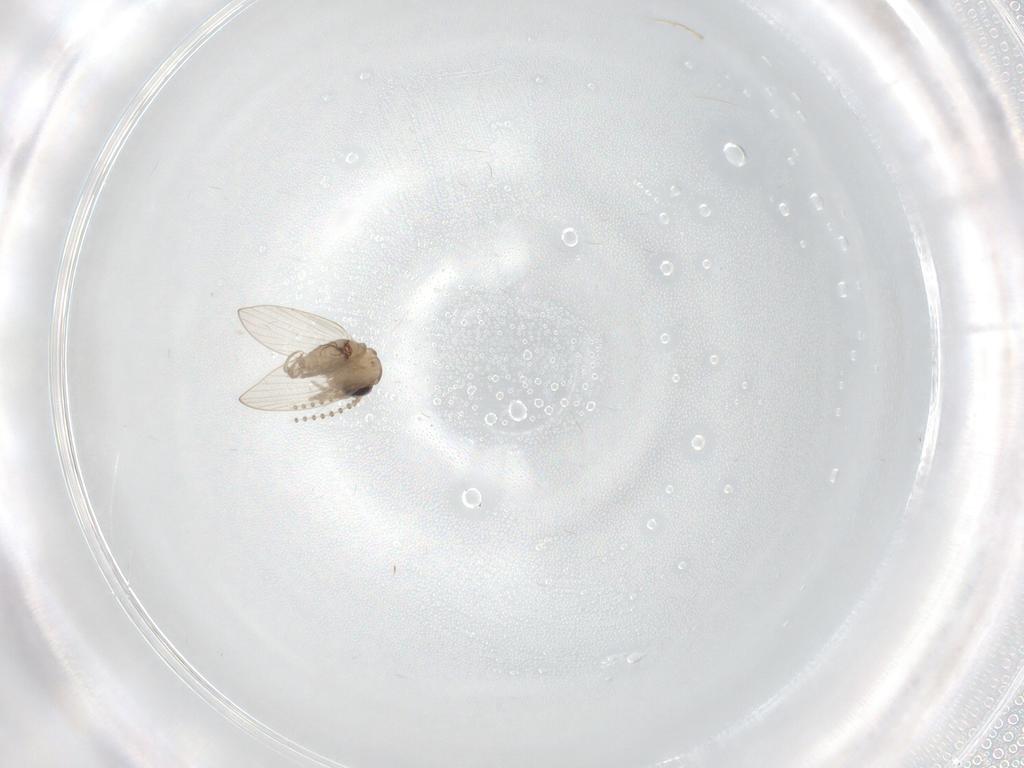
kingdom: Animalia
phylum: Arthropoda
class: Insecta
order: Diptera
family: Psychodidae
